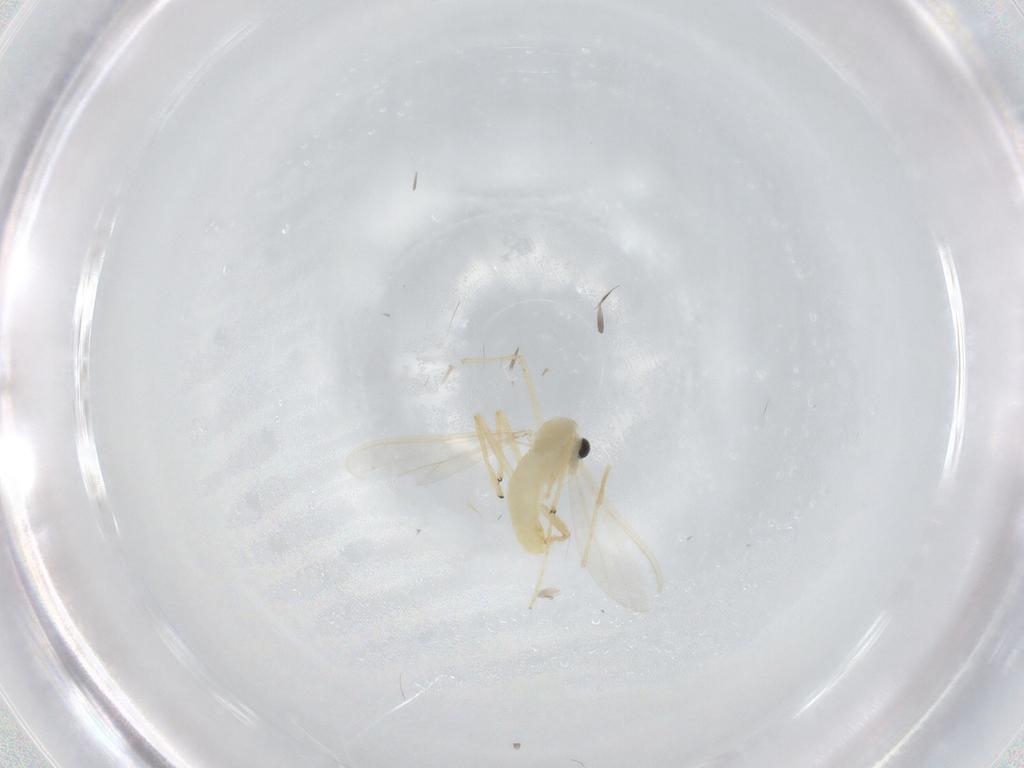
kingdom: Animalia
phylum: Arthropoda
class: Insecta
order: Diptera
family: Chironomidae
